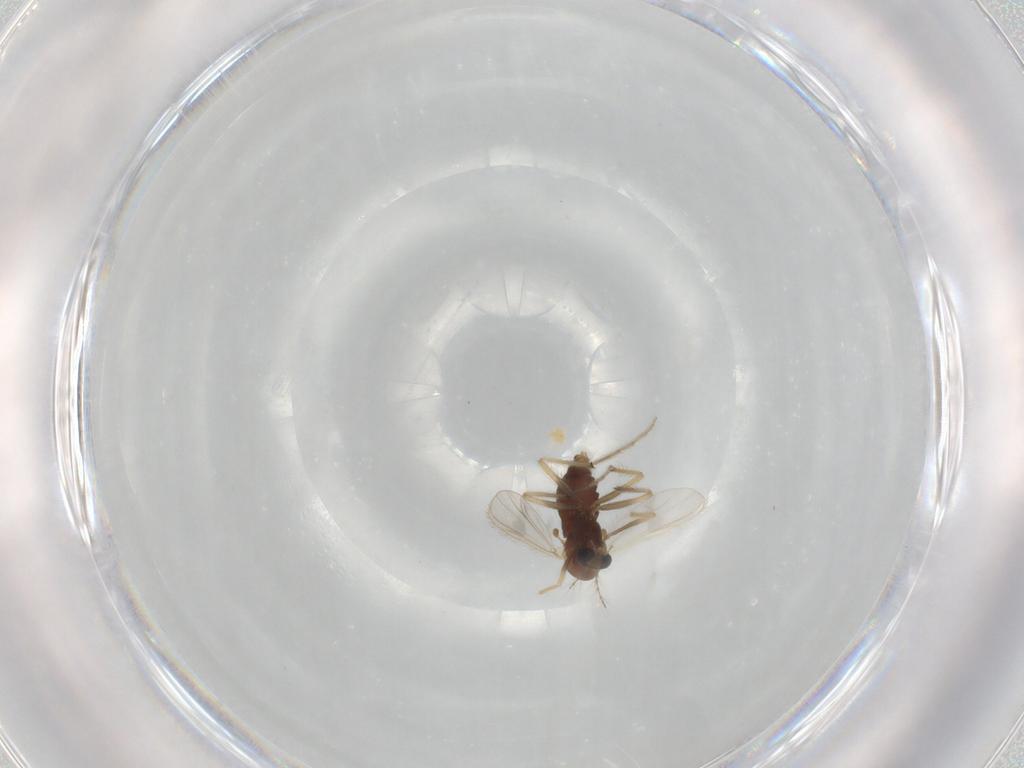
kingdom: Animalia
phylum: Arthropoda
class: Insecta
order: Diptera
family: Chironomidae
